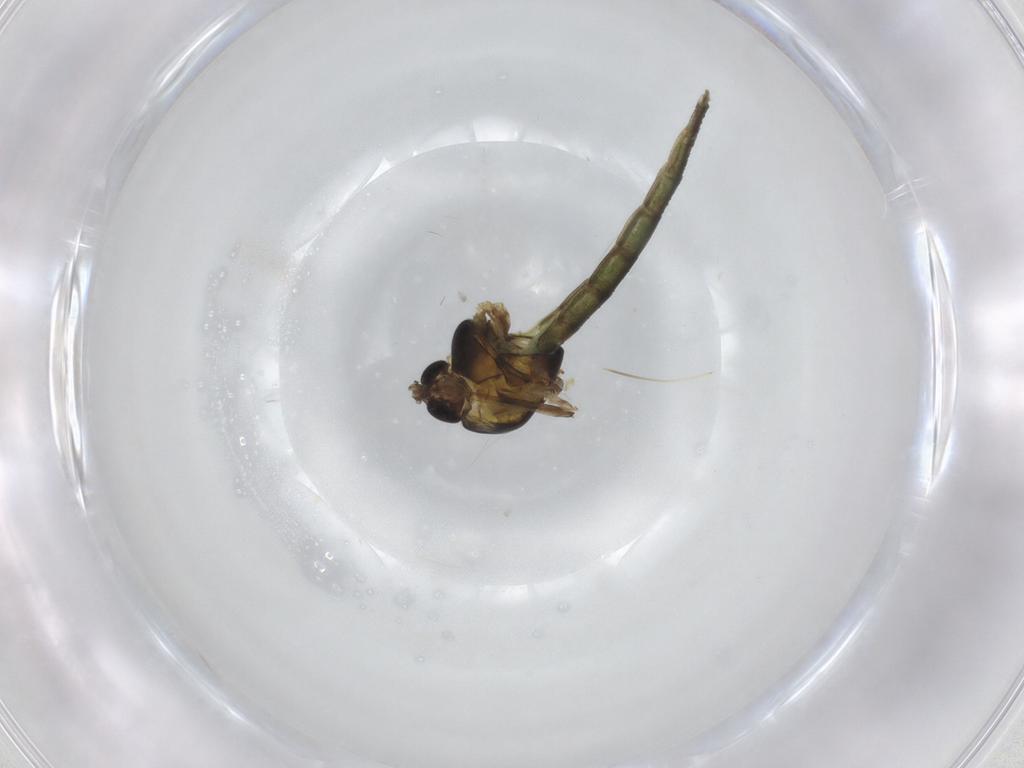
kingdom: Animalia
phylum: Arthropoda
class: Insecta
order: Diptera
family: Chironomidae
